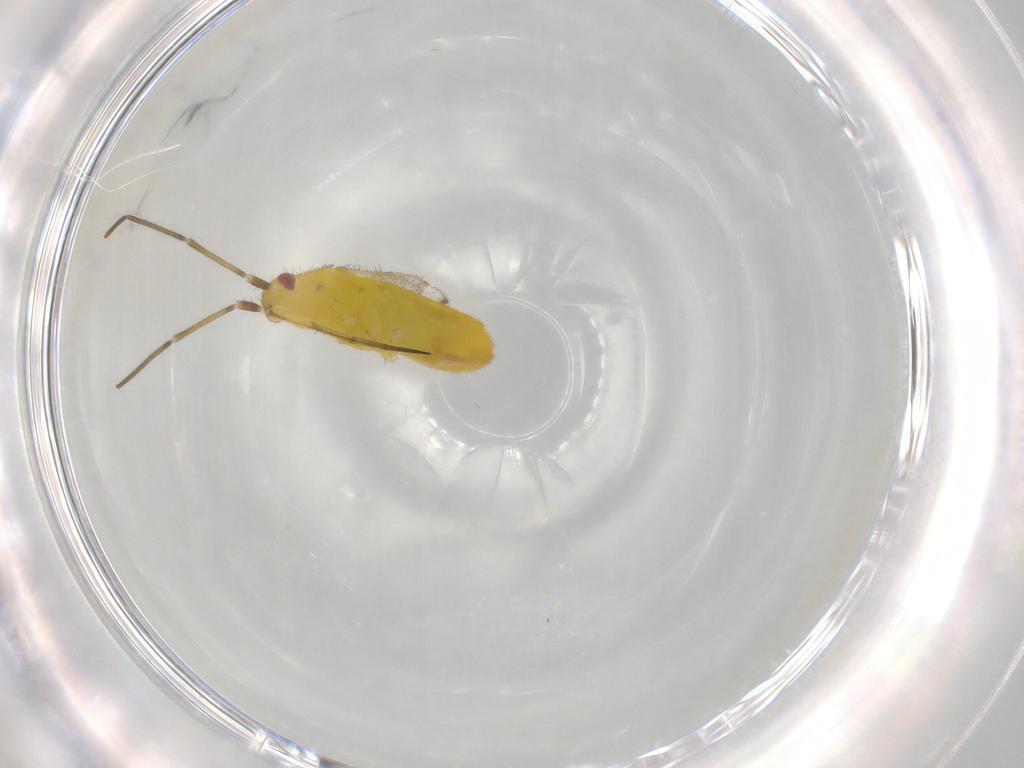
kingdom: Animalia
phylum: Arthropoda
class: Insecta
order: Hemiptera
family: Miridae
